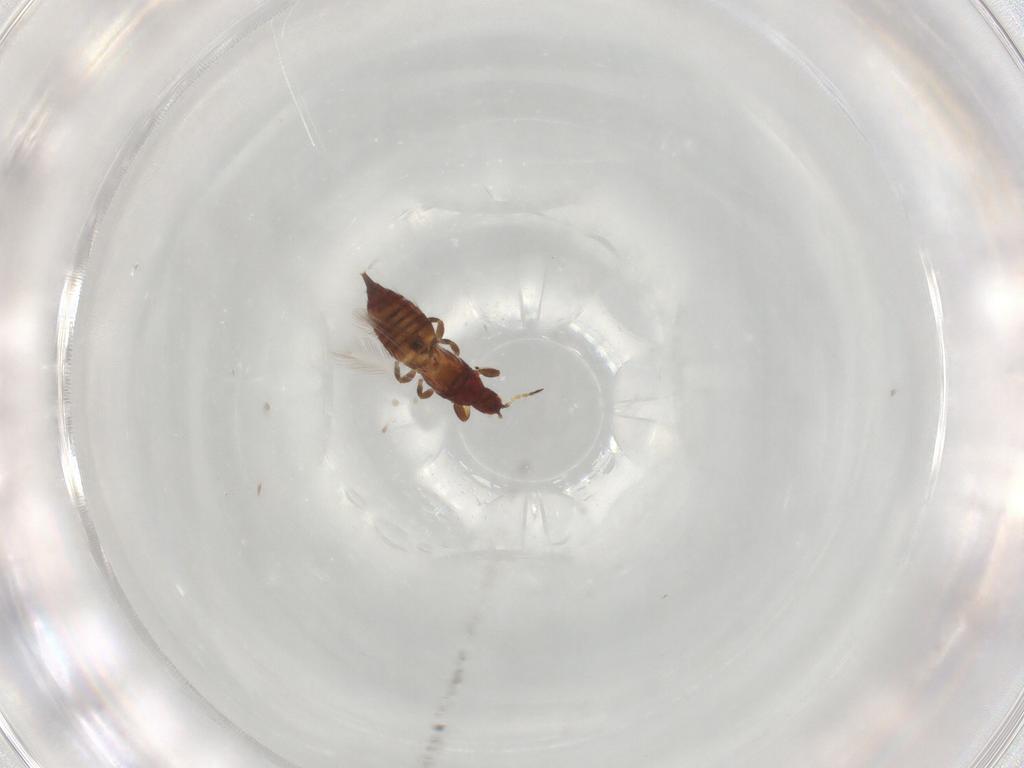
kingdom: Animalia
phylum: Arthropoda
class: Insecta
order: Thysanoptera
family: Phlaeothripidae
